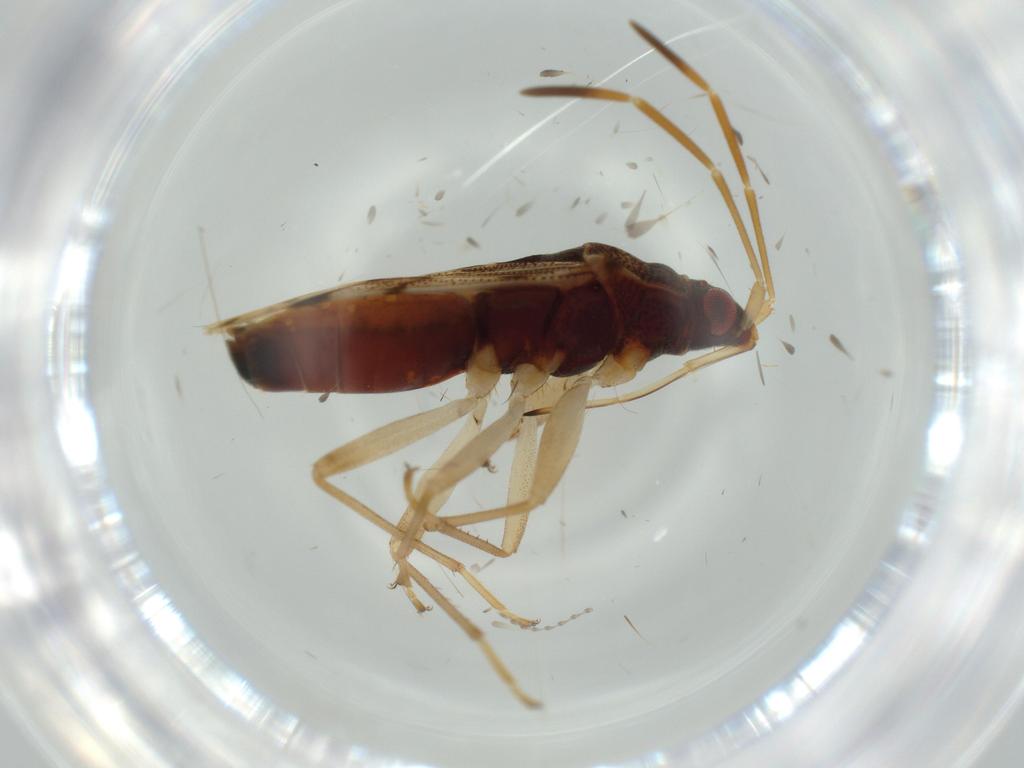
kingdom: Animalia
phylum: Arthropoda
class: Insecta
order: Hemiptera
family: Rhyparochromidae
